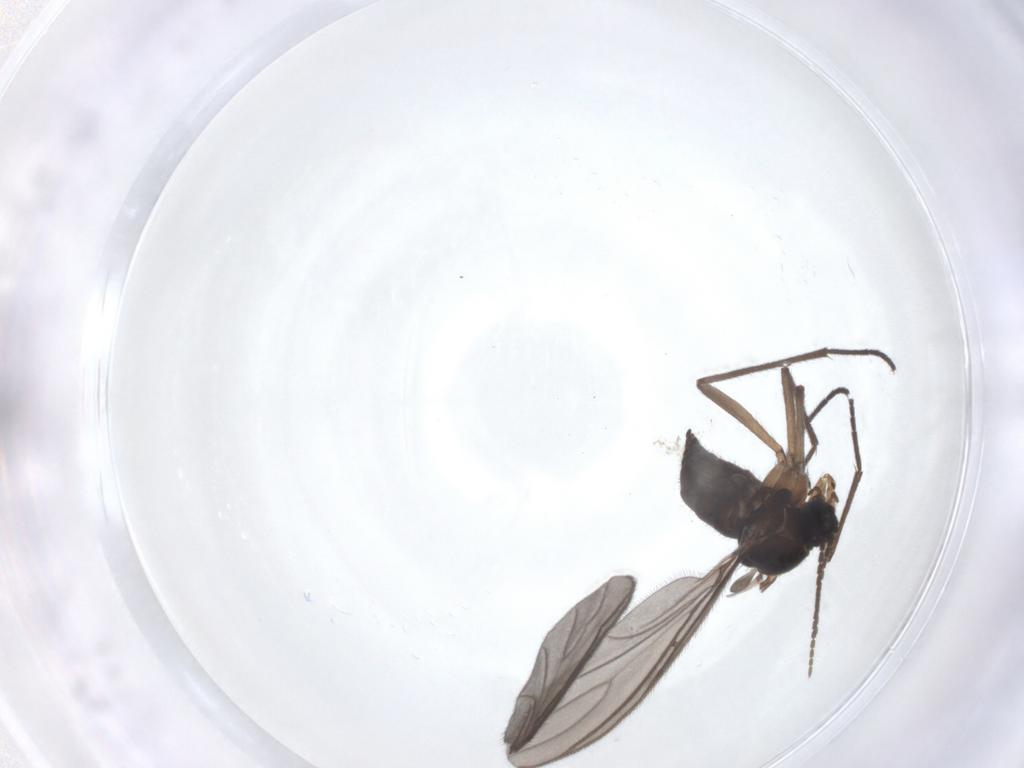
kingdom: Animalia
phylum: Arthropoda
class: Insecta
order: Diptera
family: Sciaridae
